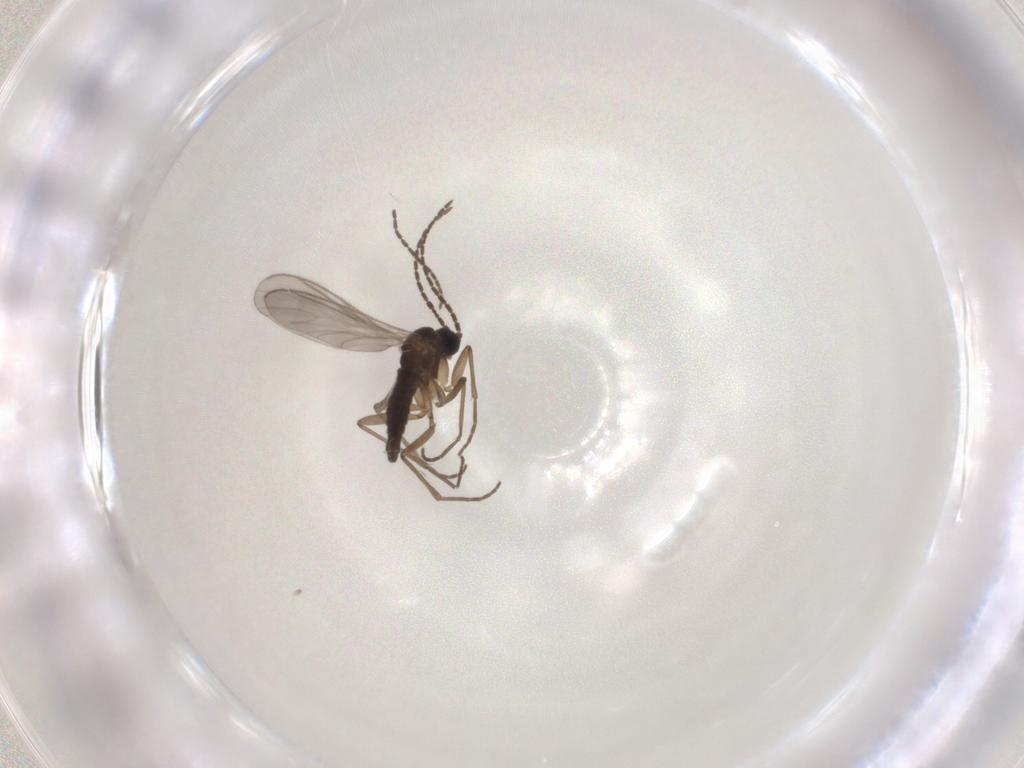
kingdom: Animalia
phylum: Arthropoda
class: Insecta
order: Diptera
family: Sciaridae
